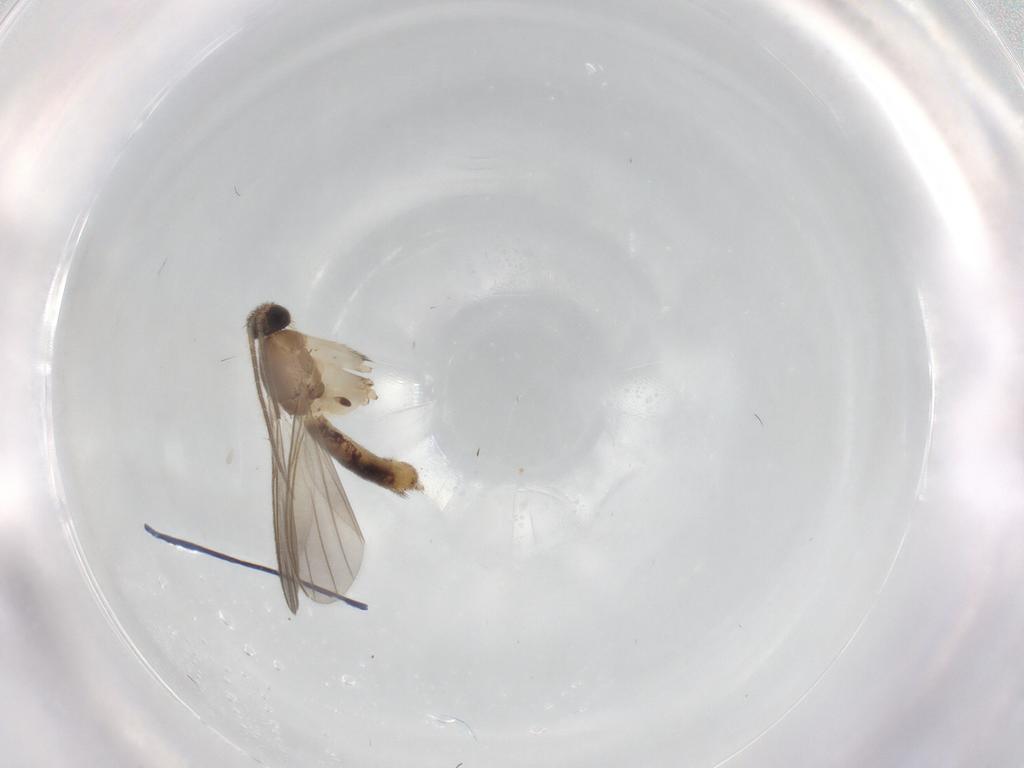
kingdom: Animalia
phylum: Arthropoda
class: Insecta
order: Diptera
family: Mycetophilidae
